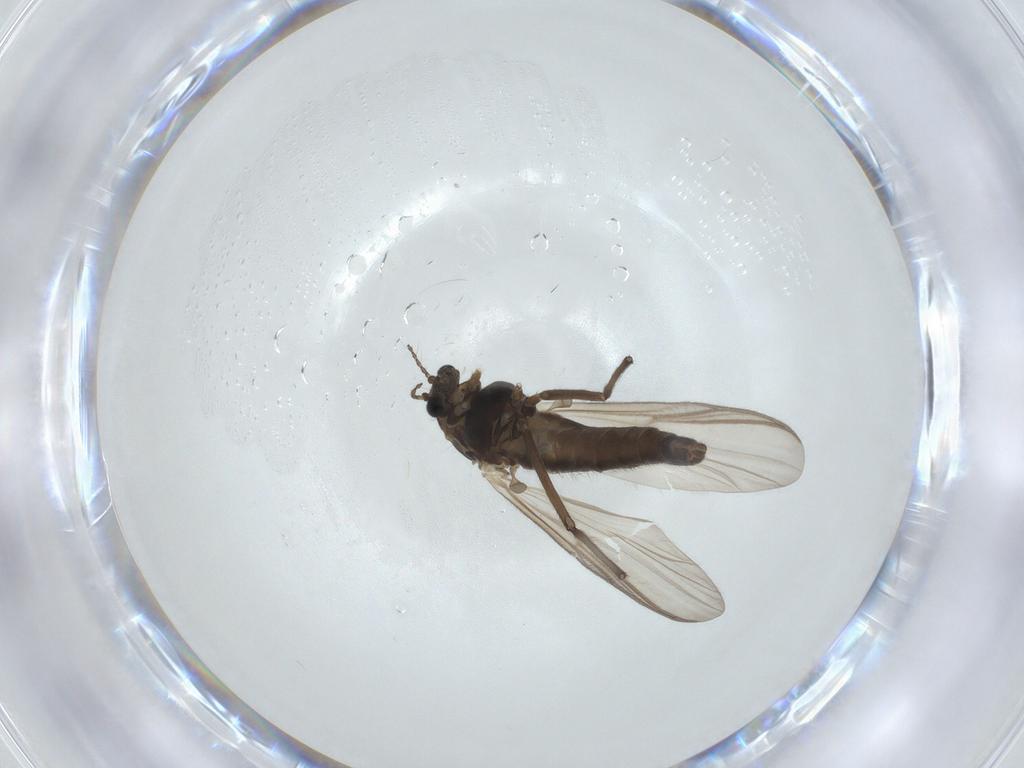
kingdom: Animalia
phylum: Arthropoda
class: Insecta
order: Diptera
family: Chironomidae
